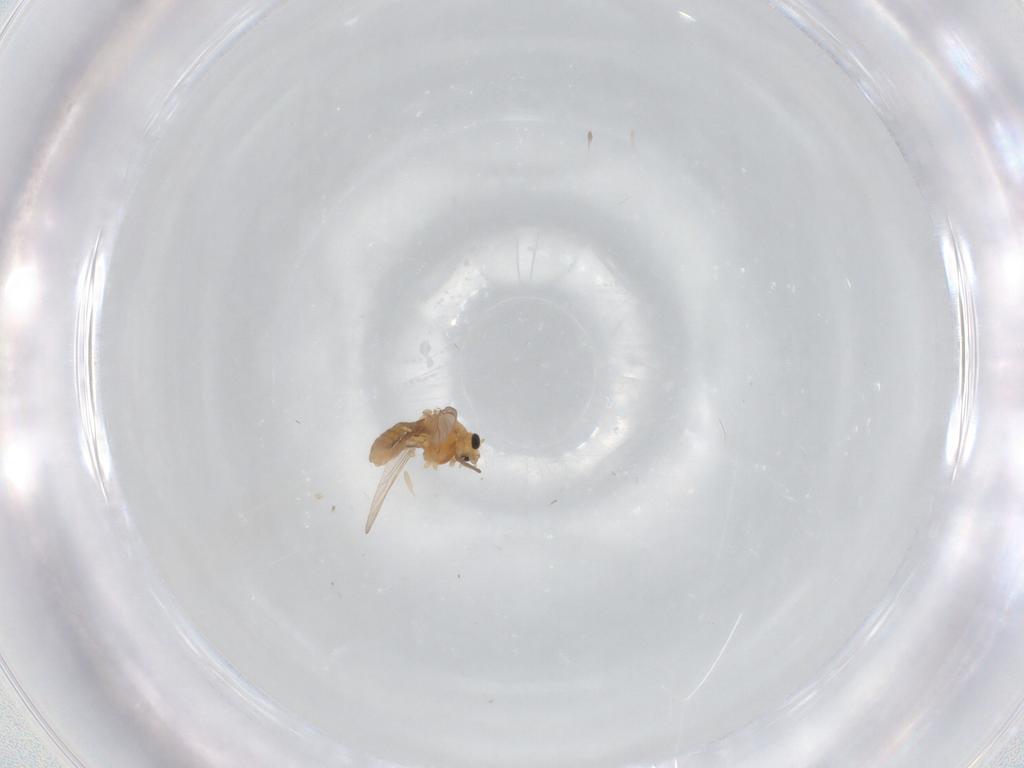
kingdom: Animalia
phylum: Arthropoda
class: Insecta
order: Diptera
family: Chironomidae
